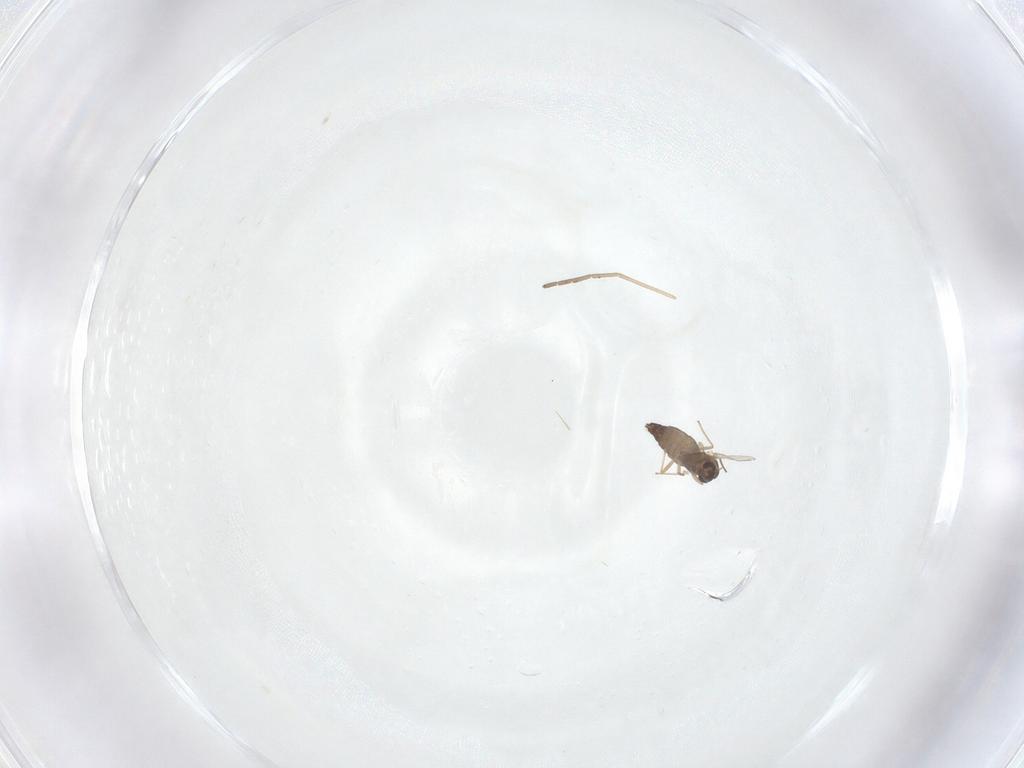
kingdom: Animalia
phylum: Arthropoda
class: Insecta
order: Diptera
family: Chironomidae
